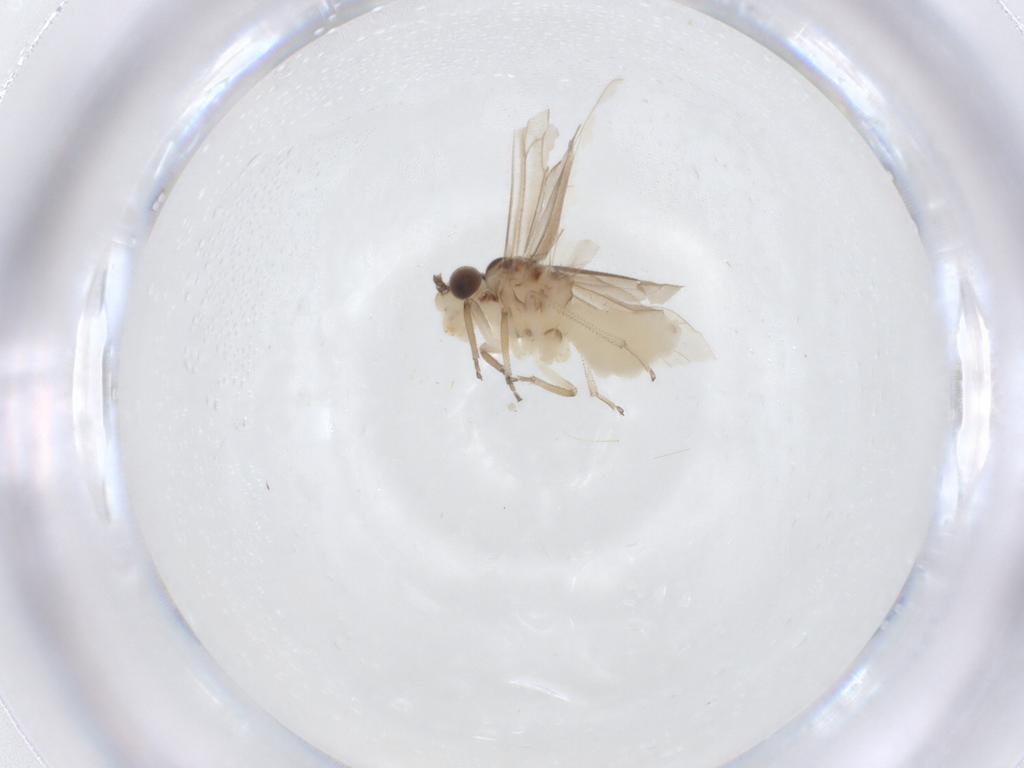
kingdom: Animalia
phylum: Arthropoda
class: Insecta
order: Psocodea
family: Caeciliusidae
